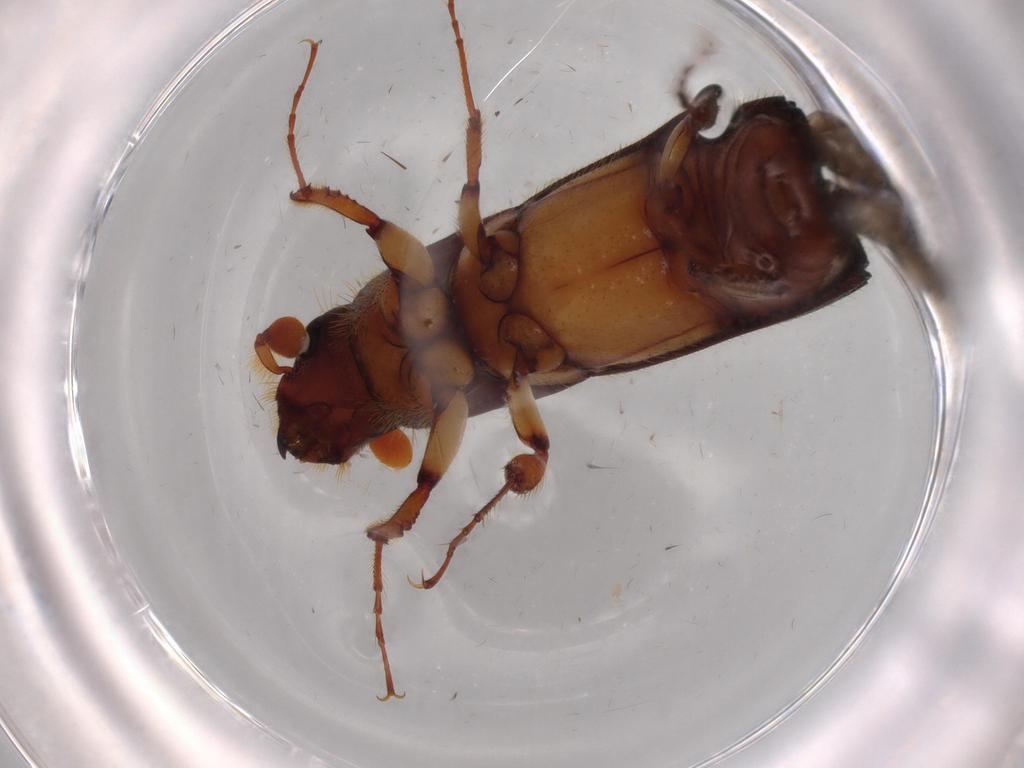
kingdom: Animalia
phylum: Arthropoda
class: Insecta
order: Coleoptera
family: Curculionidae
